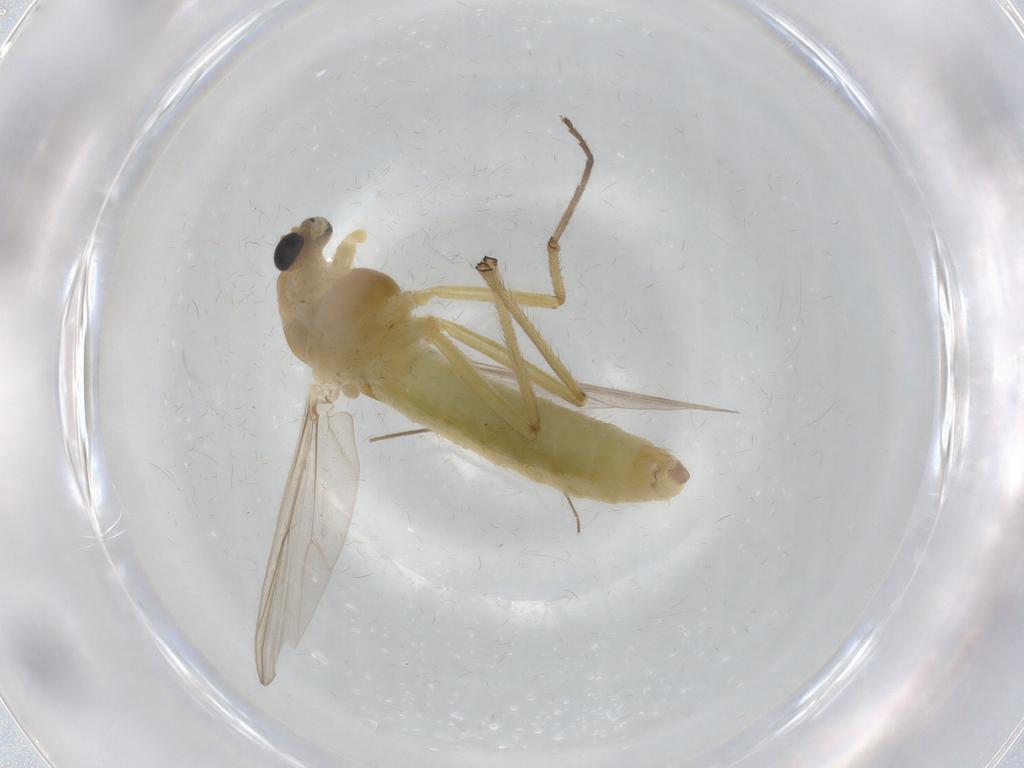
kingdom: Animalia
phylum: Arthropoda
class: Insecta
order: Diptera
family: Chironomidae
